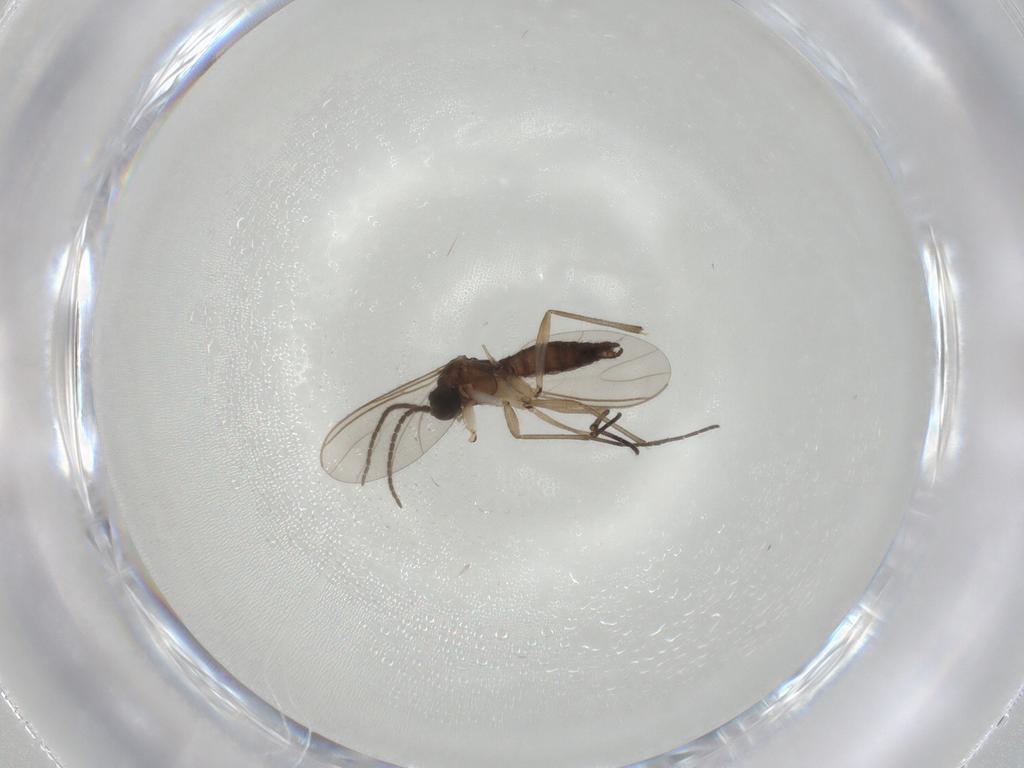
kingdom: Animalia
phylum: Arthropoda
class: Insecta
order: Diptera
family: Sciaridae
